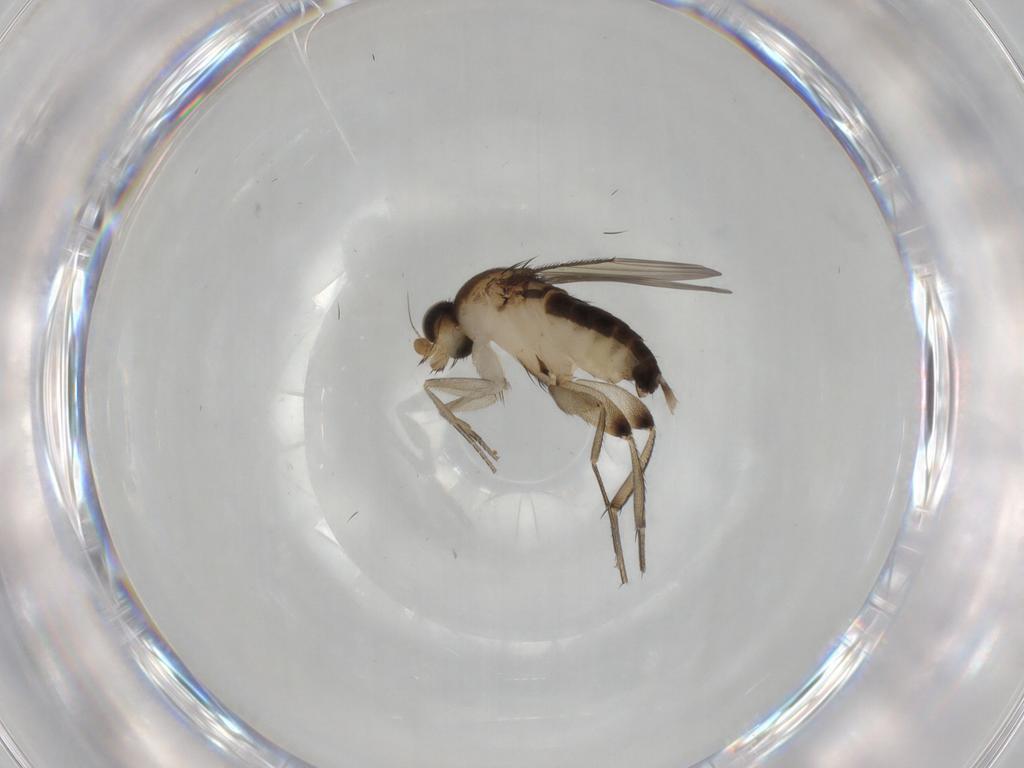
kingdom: Animalia
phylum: Arthropoda
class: Insecta
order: Diptera
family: Phoridae
